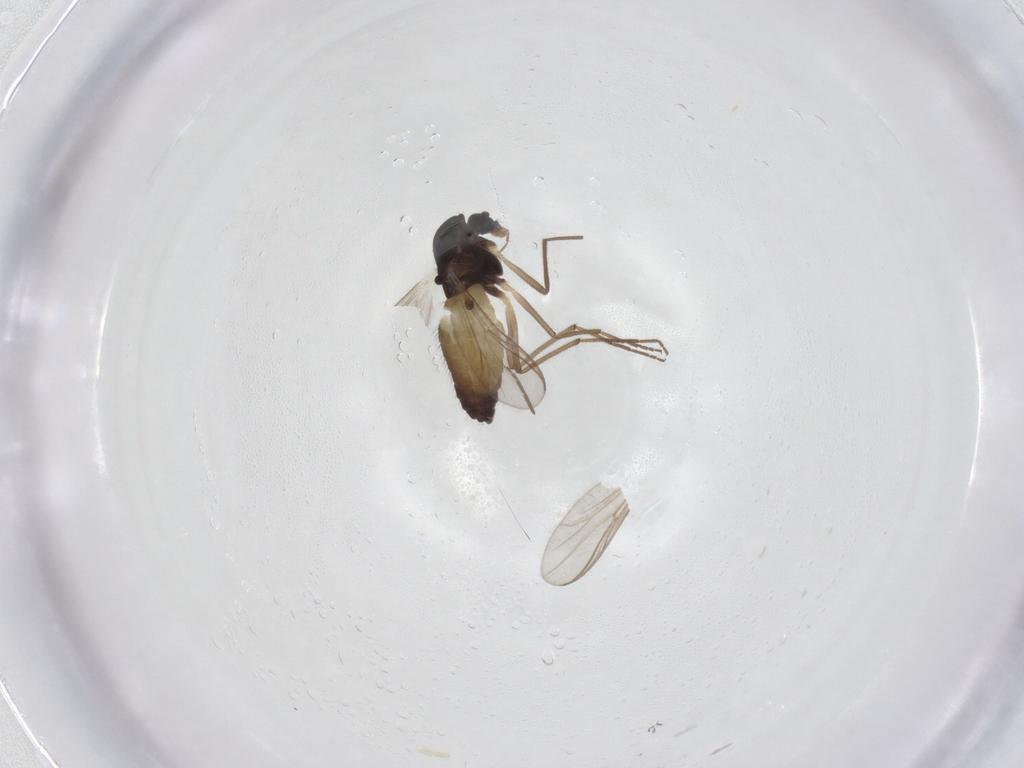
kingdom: Animalia
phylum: Arthropoda
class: Insecta
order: Diptera
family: Chironomidae
